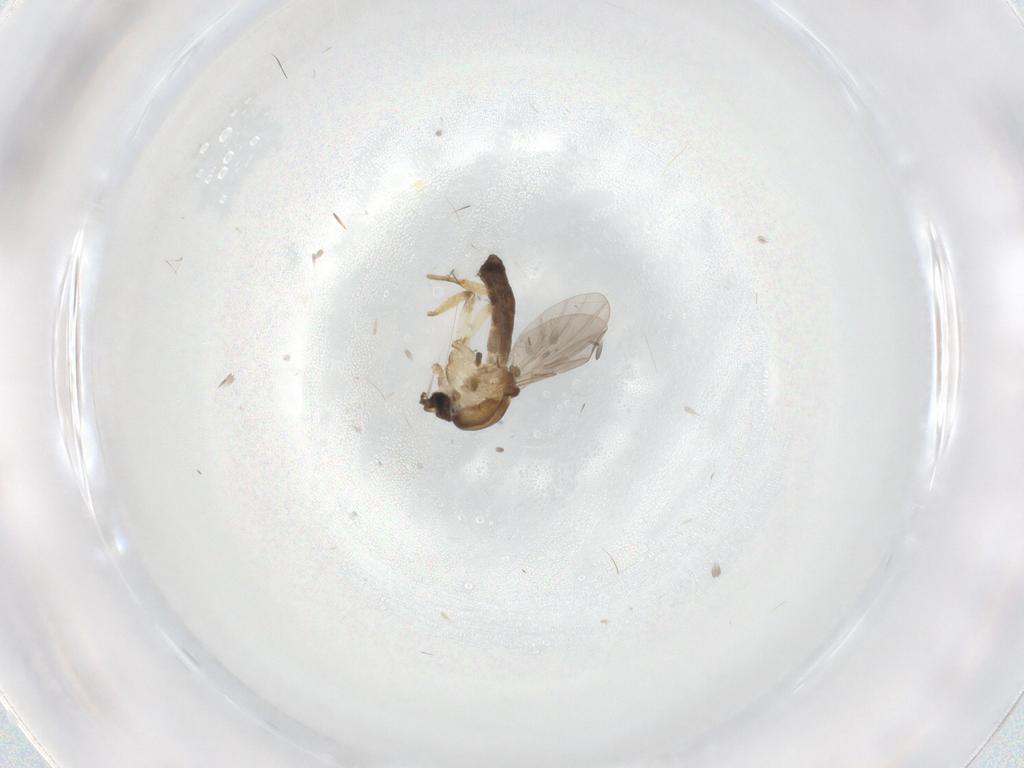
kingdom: Animalia
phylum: Arthropoda
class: Insecta
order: Diptera
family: Ceratopogonidae
